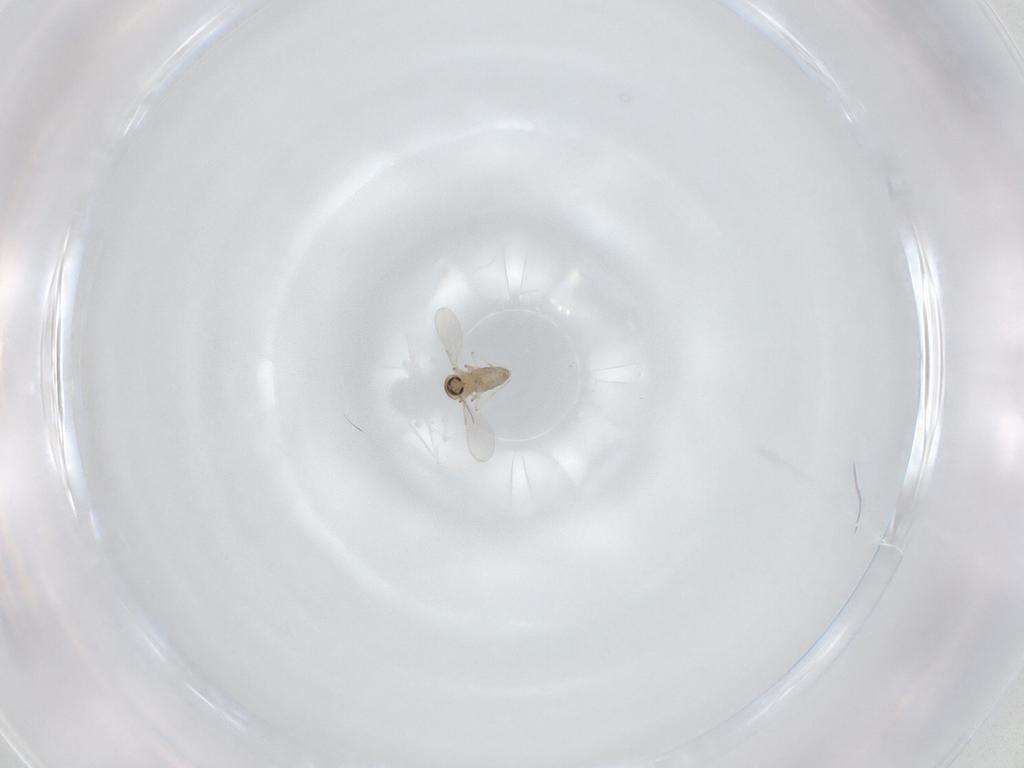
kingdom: Animalia
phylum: Arthropoda
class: Insecta
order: Diptera
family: Ceratopogonidae
